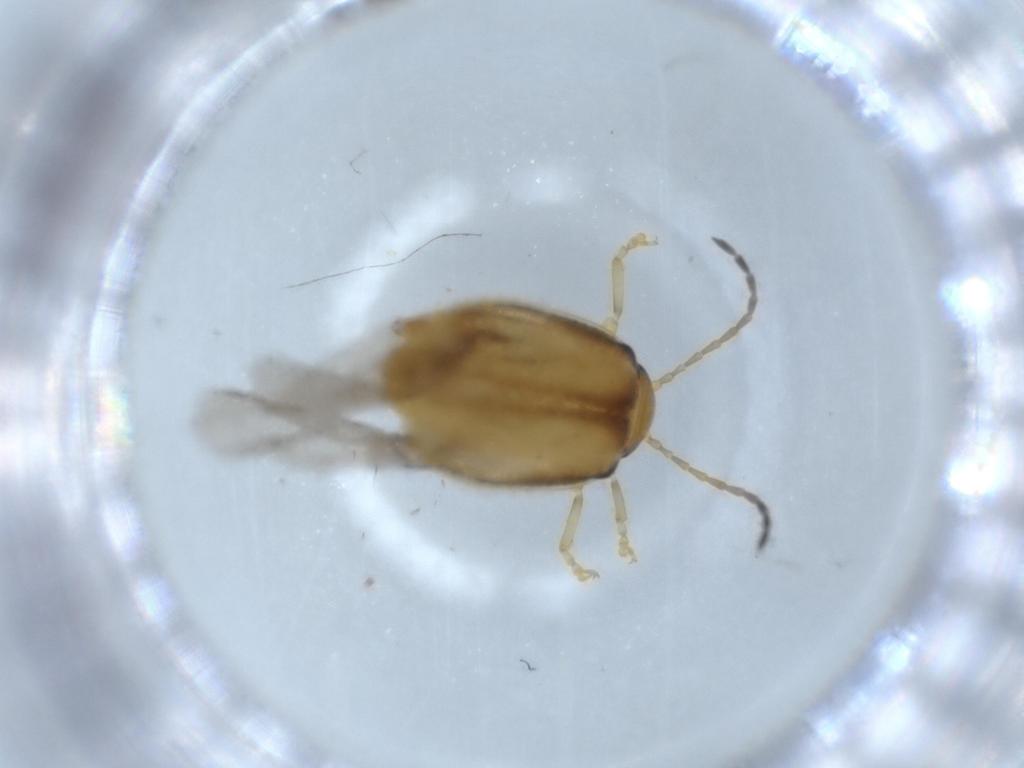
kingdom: Animalia
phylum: Arthropoda
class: Insecta
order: Coleoptera
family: Chrysomelidae
